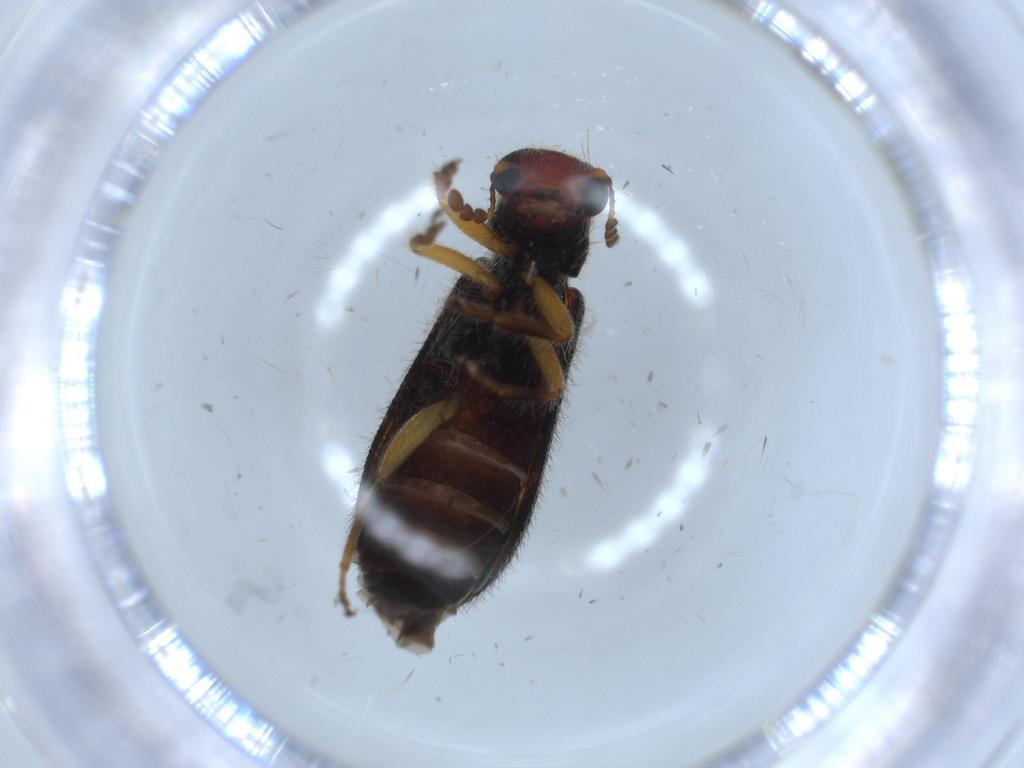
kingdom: Animalia
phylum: Arthropoda
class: Insecta
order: Coleoptera
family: Cleridae
